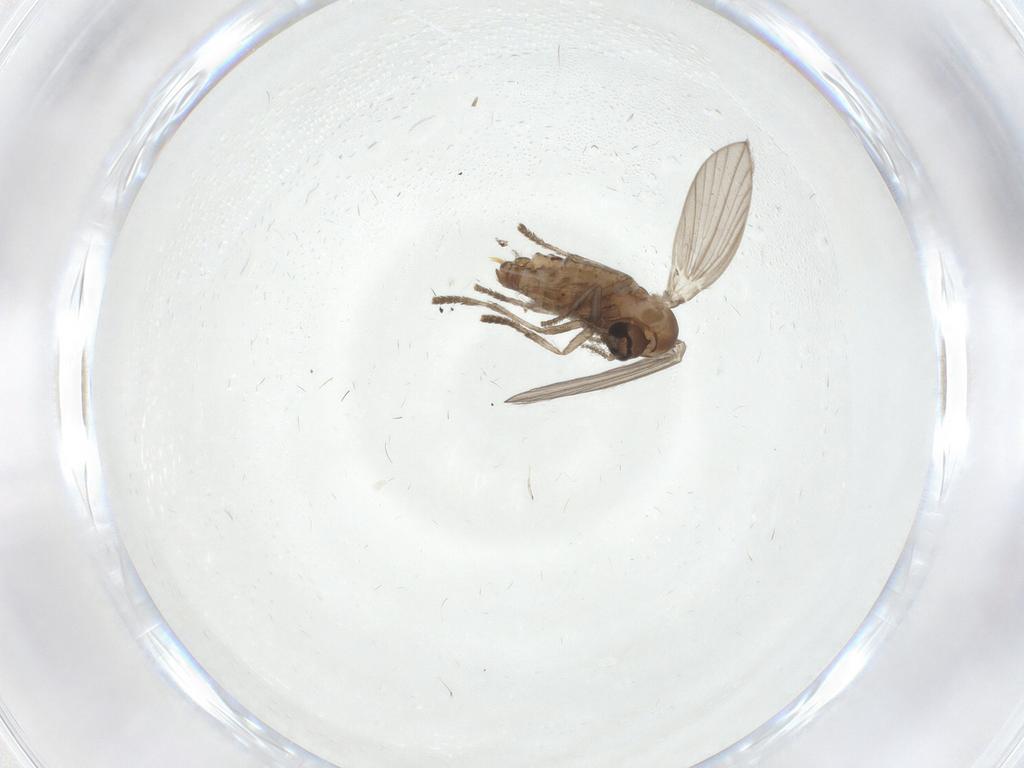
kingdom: Animalia
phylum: Arthropoda
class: Insecta
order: Diptera
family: Psychodidae
